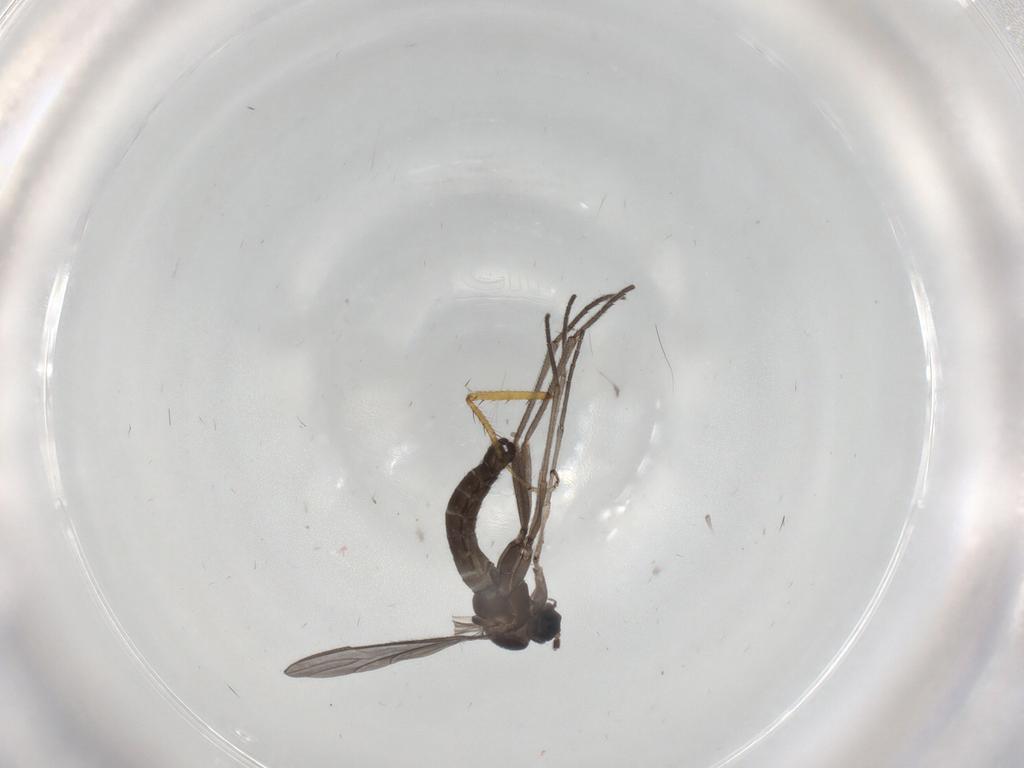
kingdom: Animalia
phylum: Arthropoda
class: Insecta
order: Diptera
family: Sciaridae
